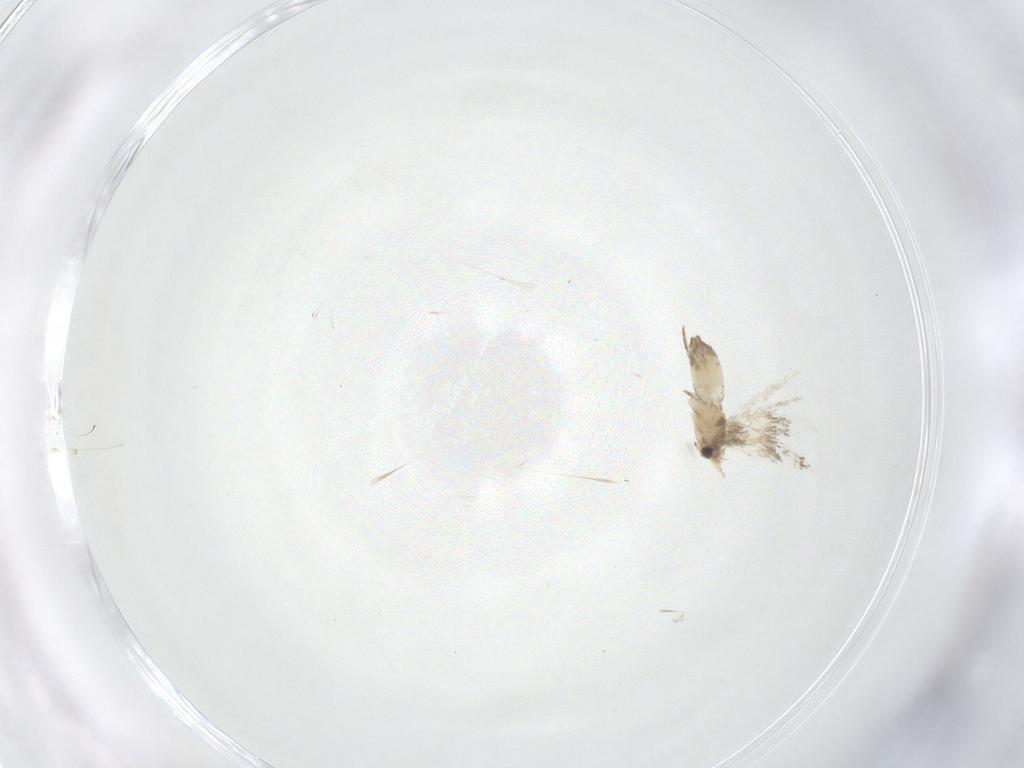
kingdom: Animalia
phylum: Arthropoda
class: Insecta
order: Lepidoptera
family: Nepticulidae
